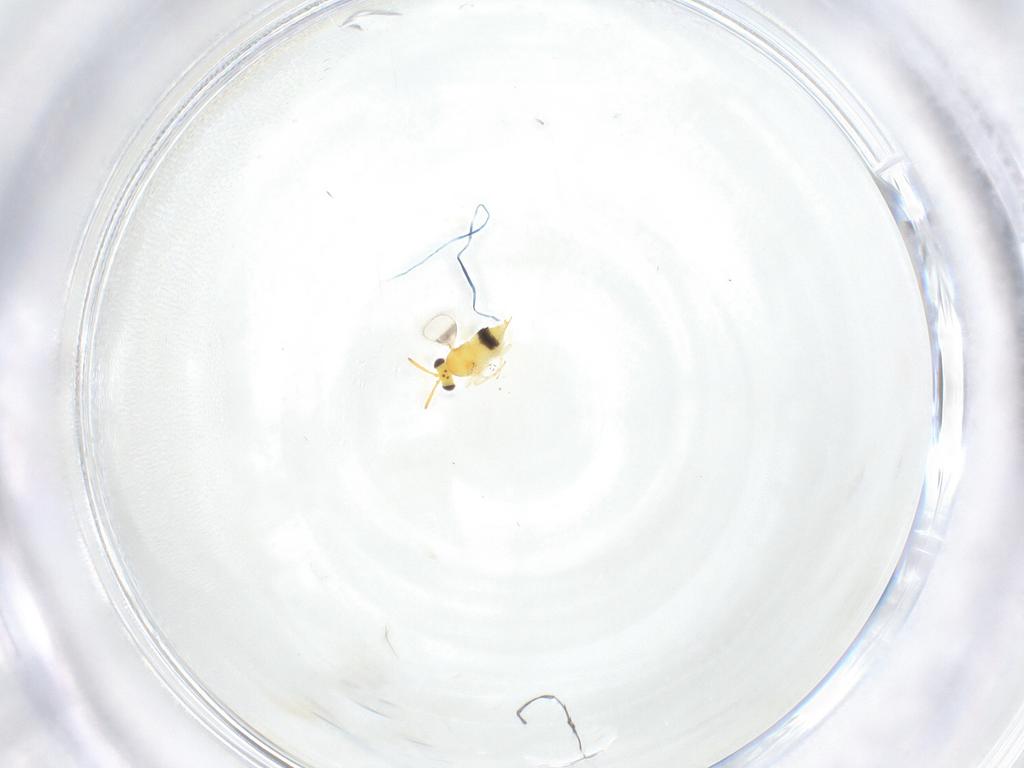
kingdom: Animalia
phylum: Arthropoda
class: Insecta
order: Hymenoptera
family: Aphelinidae
